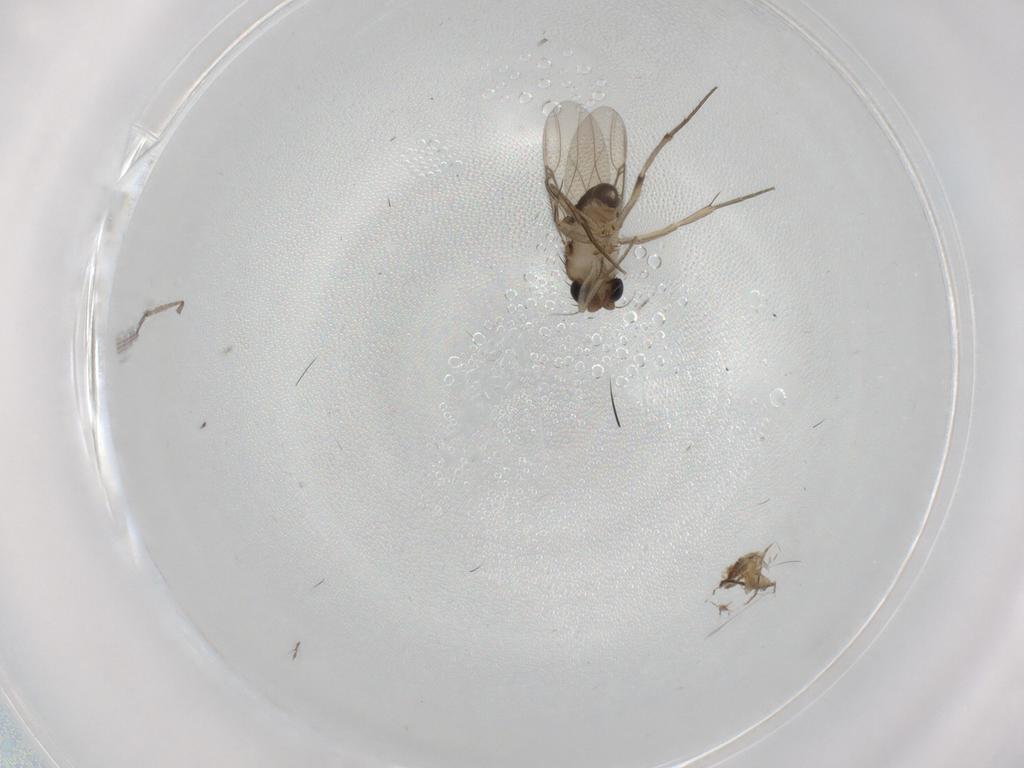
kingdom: Animalia
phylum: Arthropoda
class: Insecta
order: Diptera
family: Phoridae
